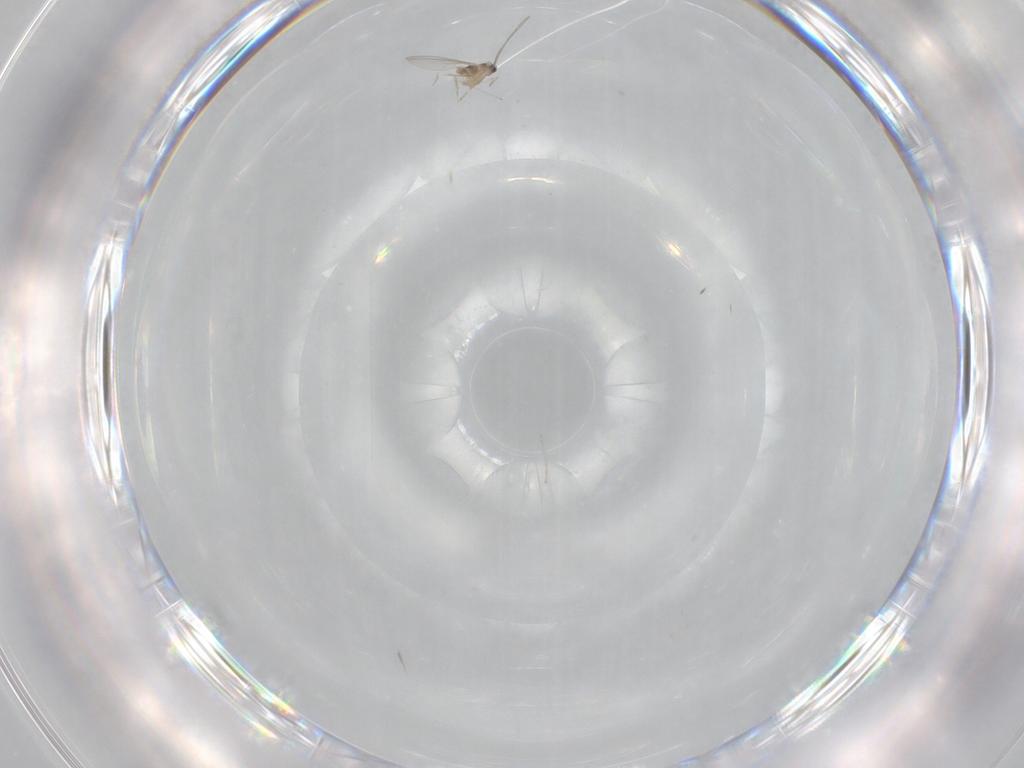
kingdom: Animalia
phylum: Arthropoda
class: Insecta
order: Diptera
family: Cecidomyiidae
